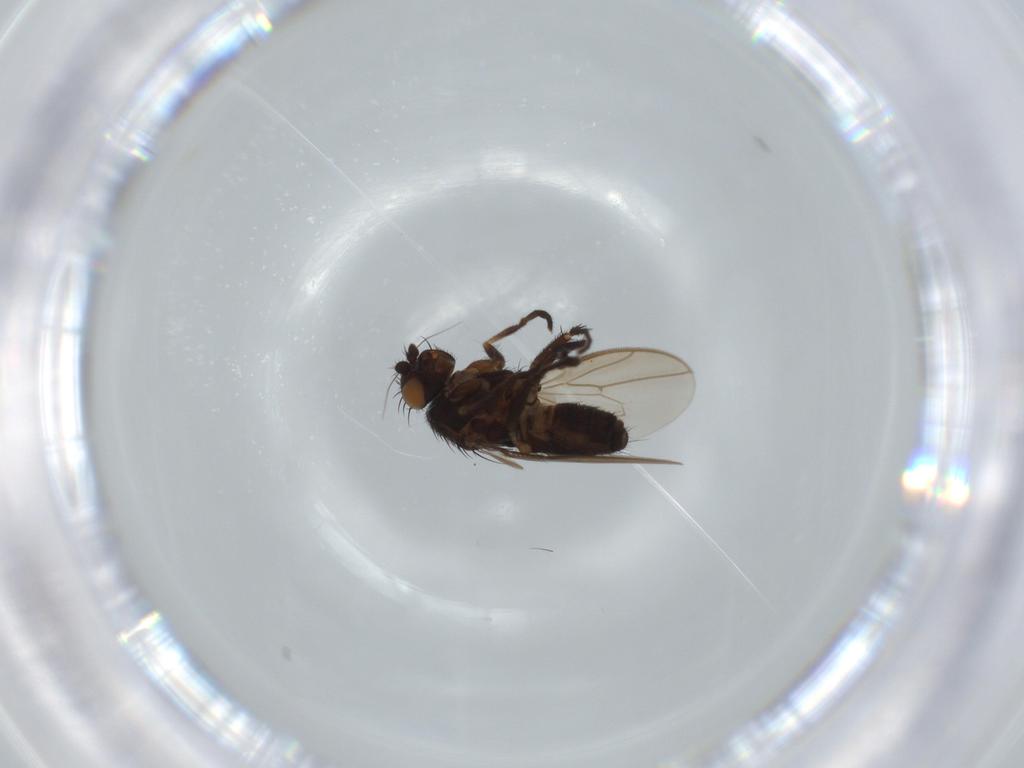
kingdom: Animalia
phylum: Arthropoda
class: Insecta
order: Diptera
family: Sphaeroceridae
